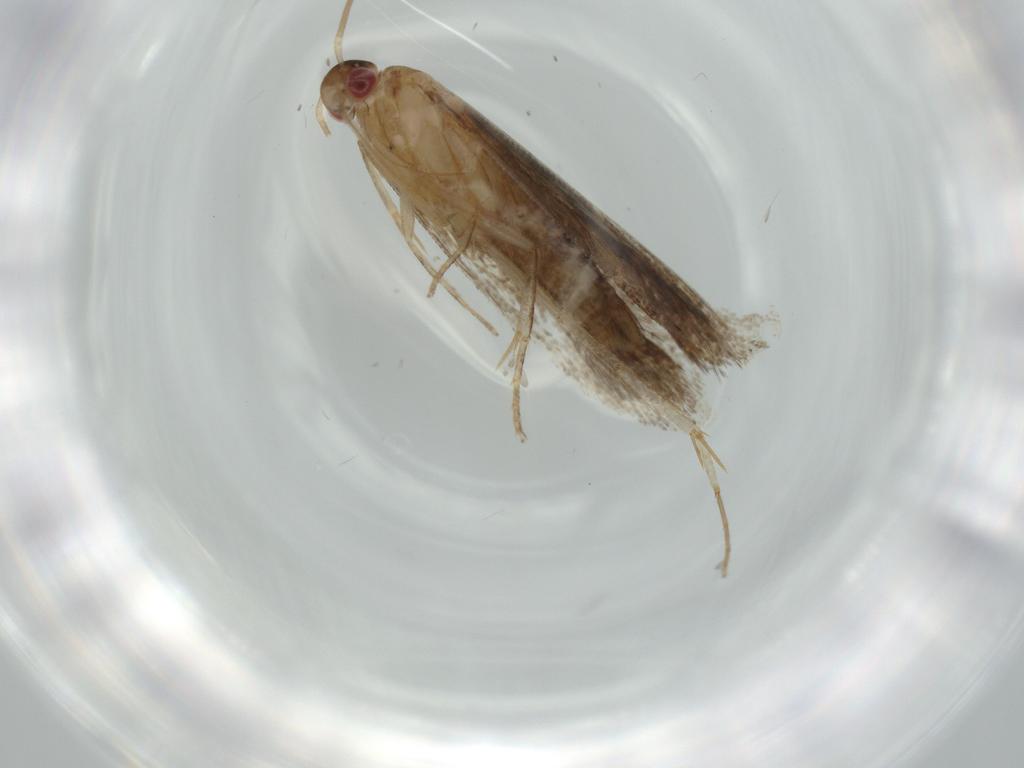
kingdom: Animalia
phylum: Arthropoda
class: Insecta
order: Lepidoptera
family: Gelechiidae
